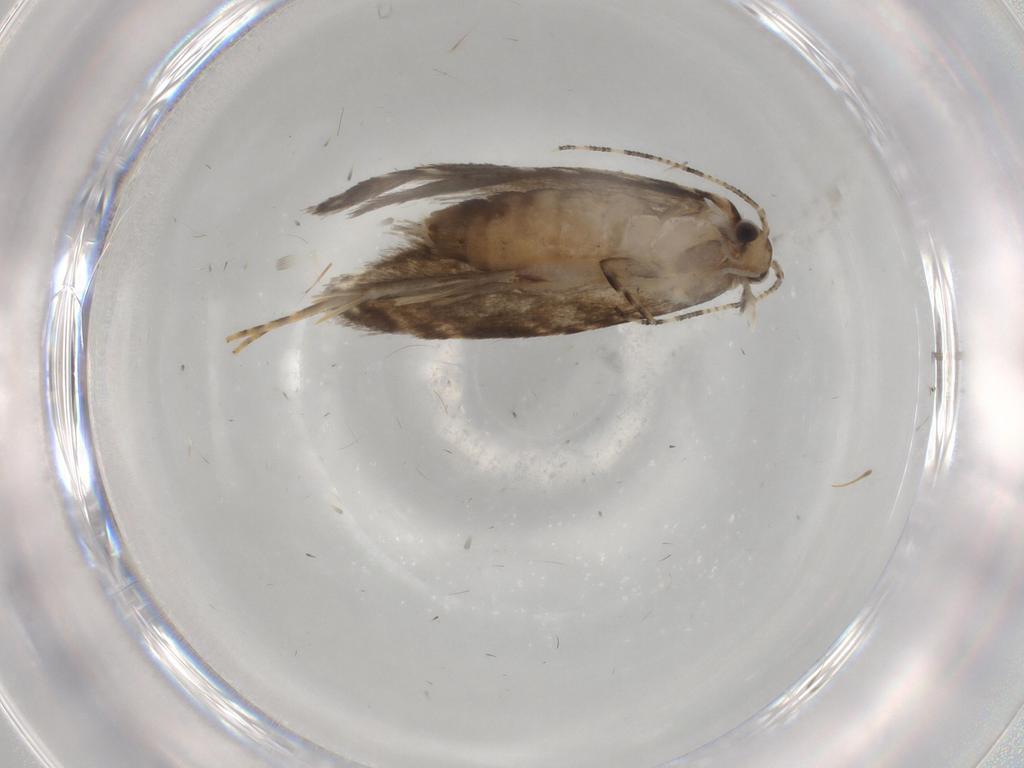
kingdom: Animalia
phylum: Arthropoda
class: Insecta
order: Lepidoptera
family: Tineidae
